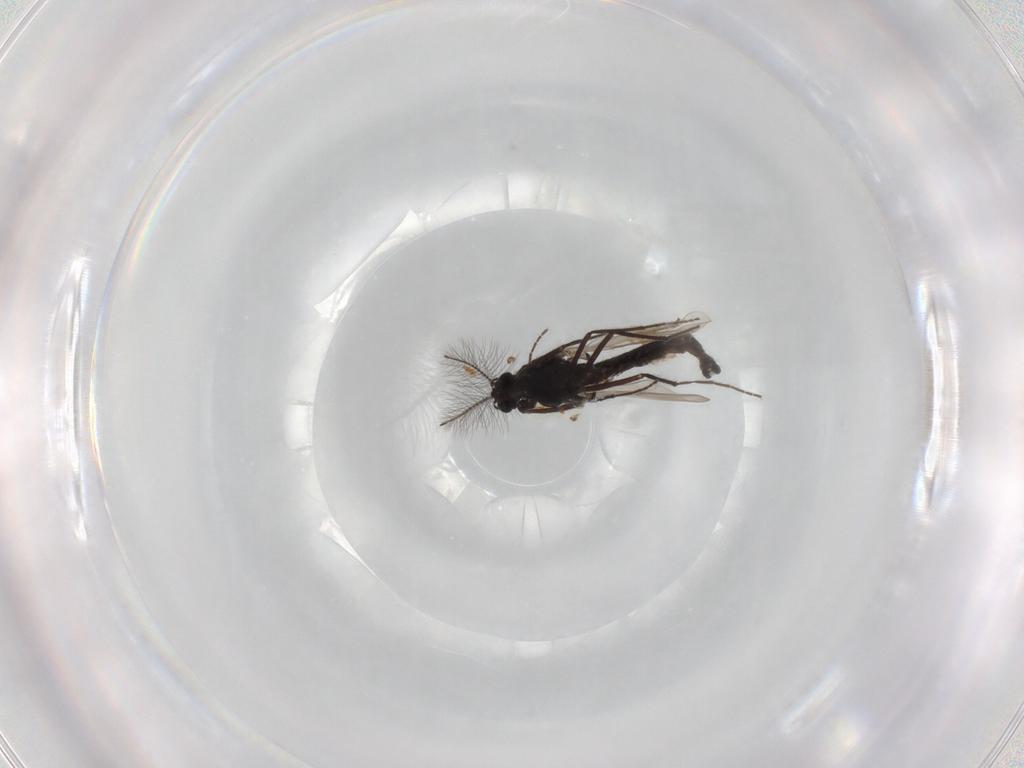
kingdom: Animalia
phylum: Arthropoda
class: Insecta
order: Diptera
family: Chironomidae
